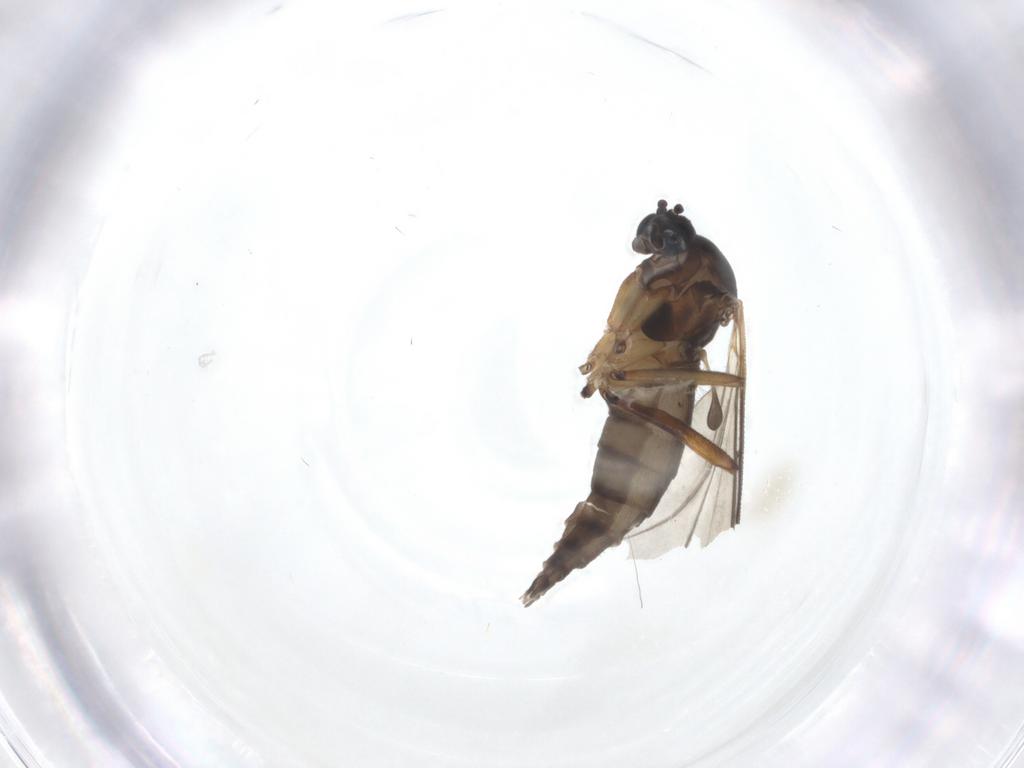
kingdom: Animalia
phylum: Arthropoda
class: Insecta
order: Diptera
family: Sciaridae
